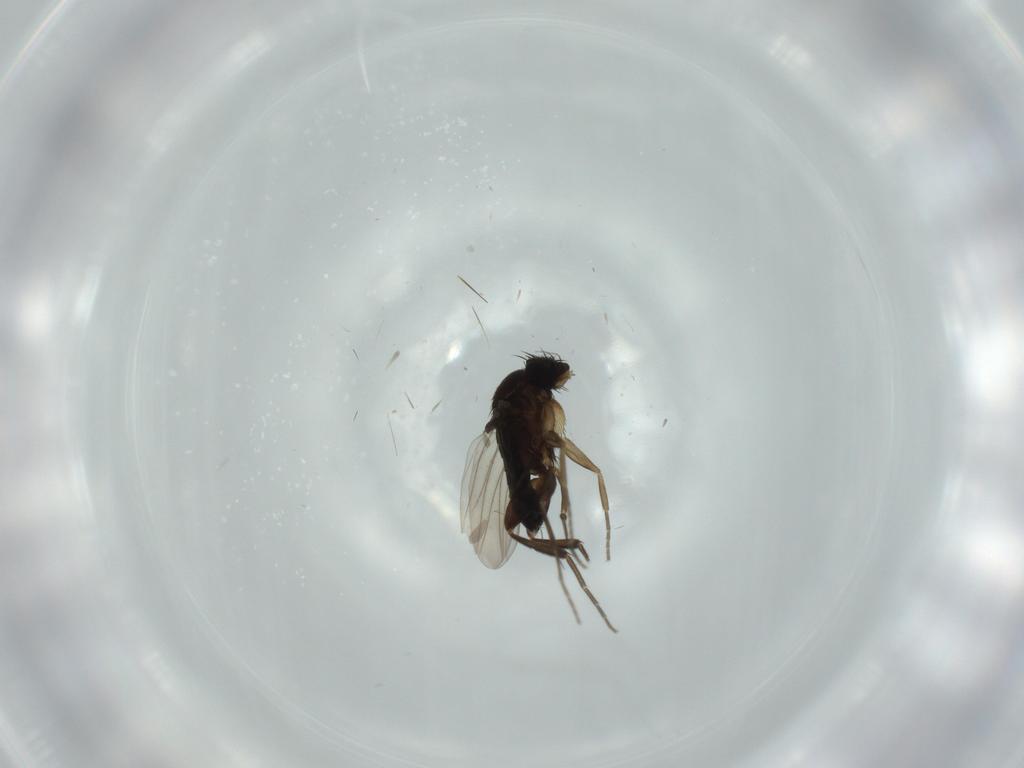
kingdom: Animalia
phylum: Arthropoda
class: Insecta
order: Diptera
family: Phoridae
